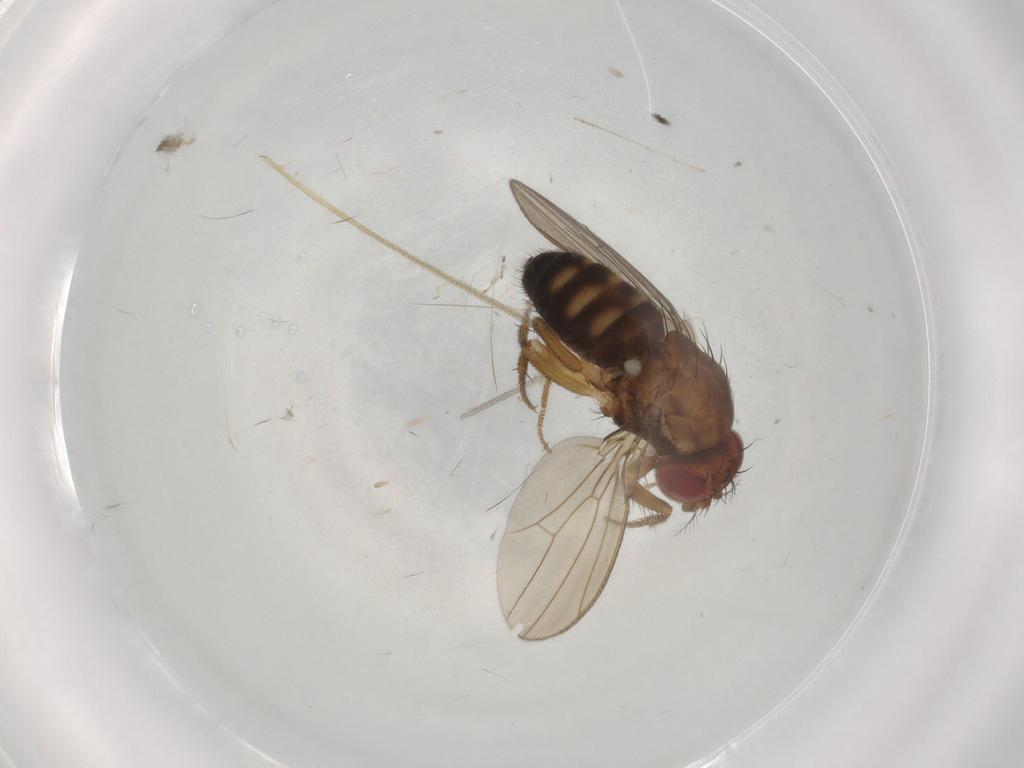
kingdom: Animalia
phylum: Arthropoda
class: Insecta
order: Diptera
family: Drosophilidae
